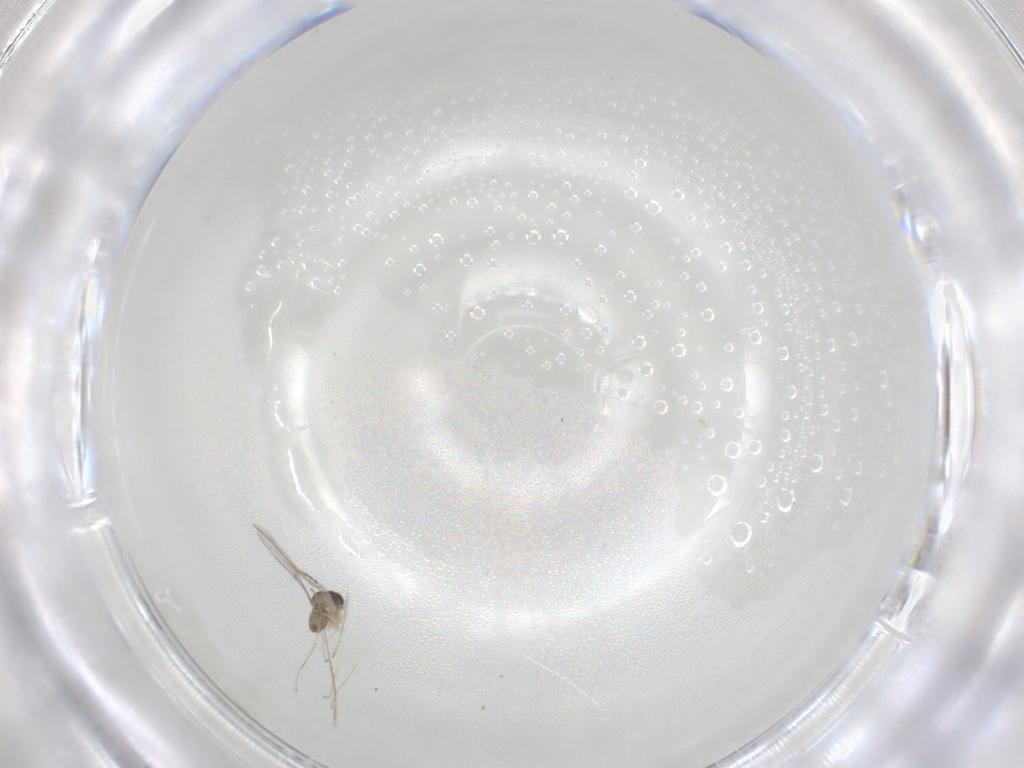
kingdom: Animalia
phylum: Arthropoda
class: Insecta
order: Diptera
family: Cecidomyiidae
